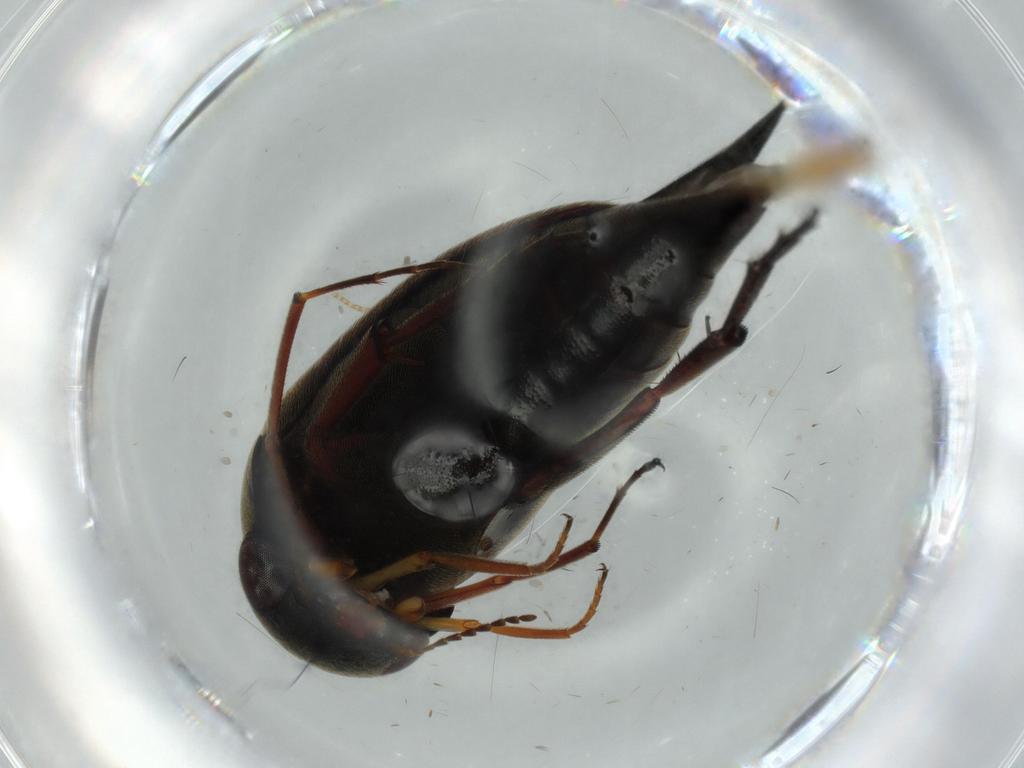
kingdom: Animalia
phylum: Arthropoda
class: Insecta
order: Coleoptera
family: Mordellidae
